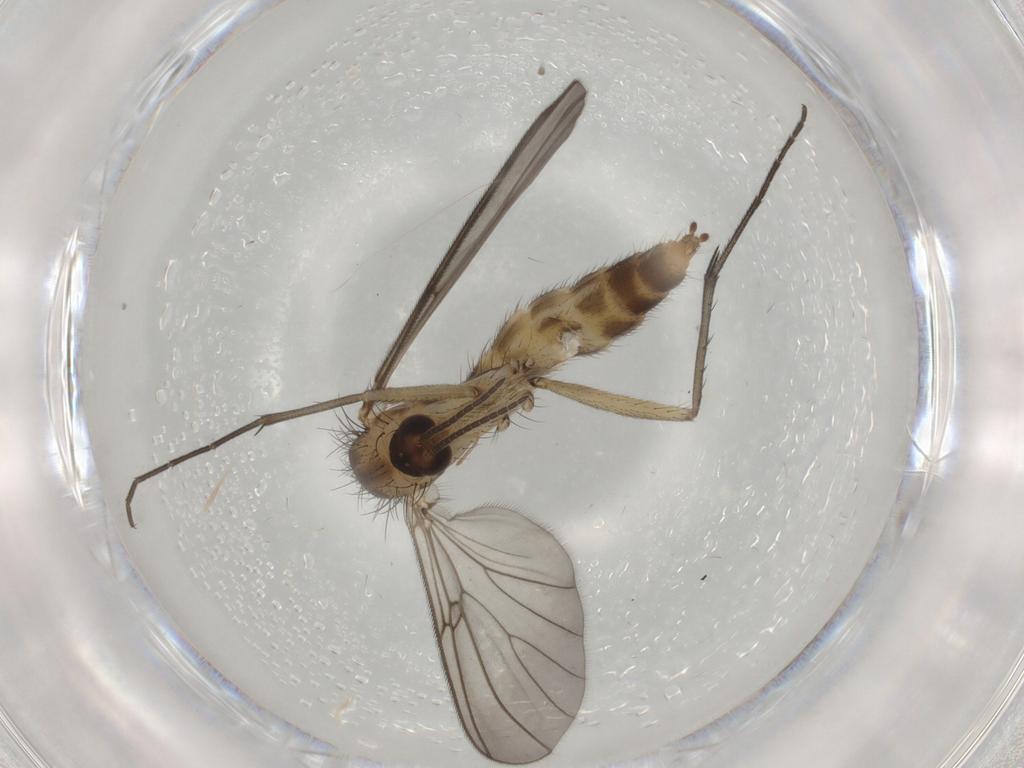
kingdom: Animalia
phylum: Arthropoda
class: Insecta
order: Diptera
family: Mycetophilidae
